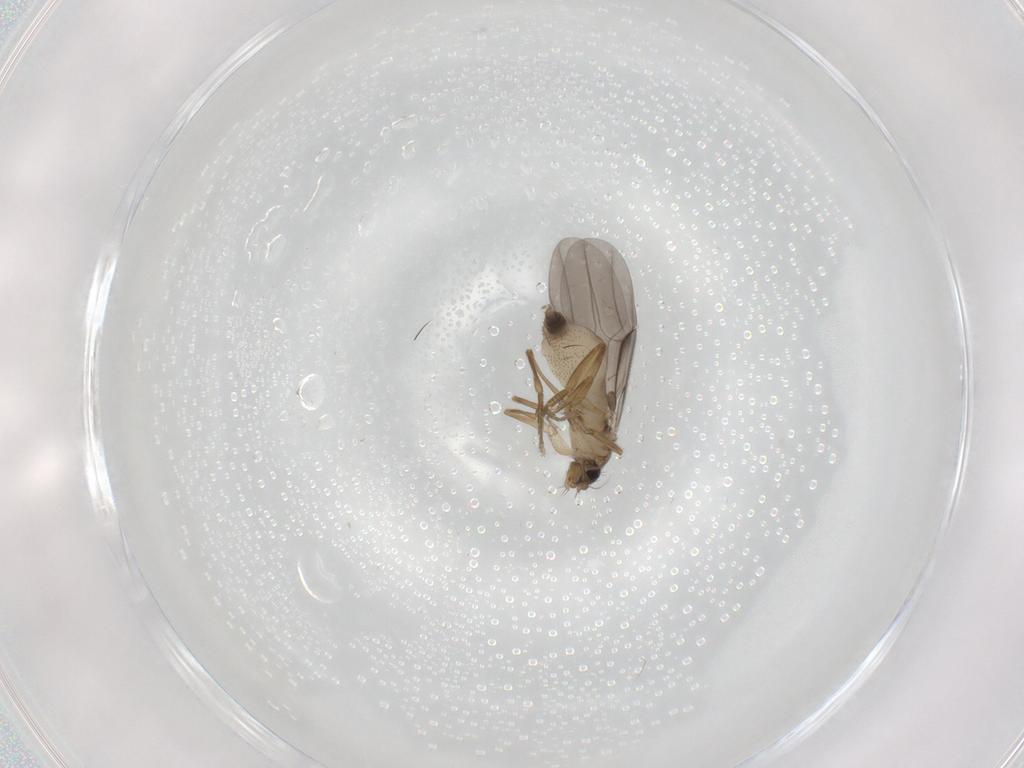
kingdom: Animalia
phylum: Arthropoda
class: Insecta
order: Diptera
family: Phoridae
